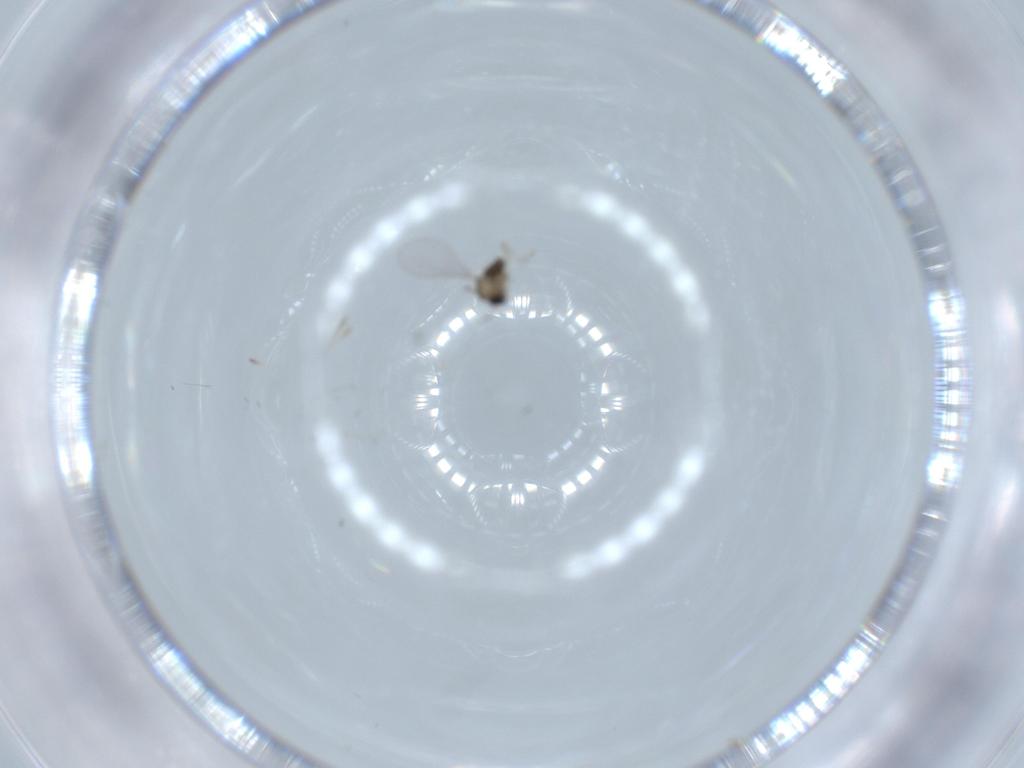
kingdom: Animalia
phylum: Arthropoda
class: Insecta
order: Diptera
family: Cecidomyiidae
